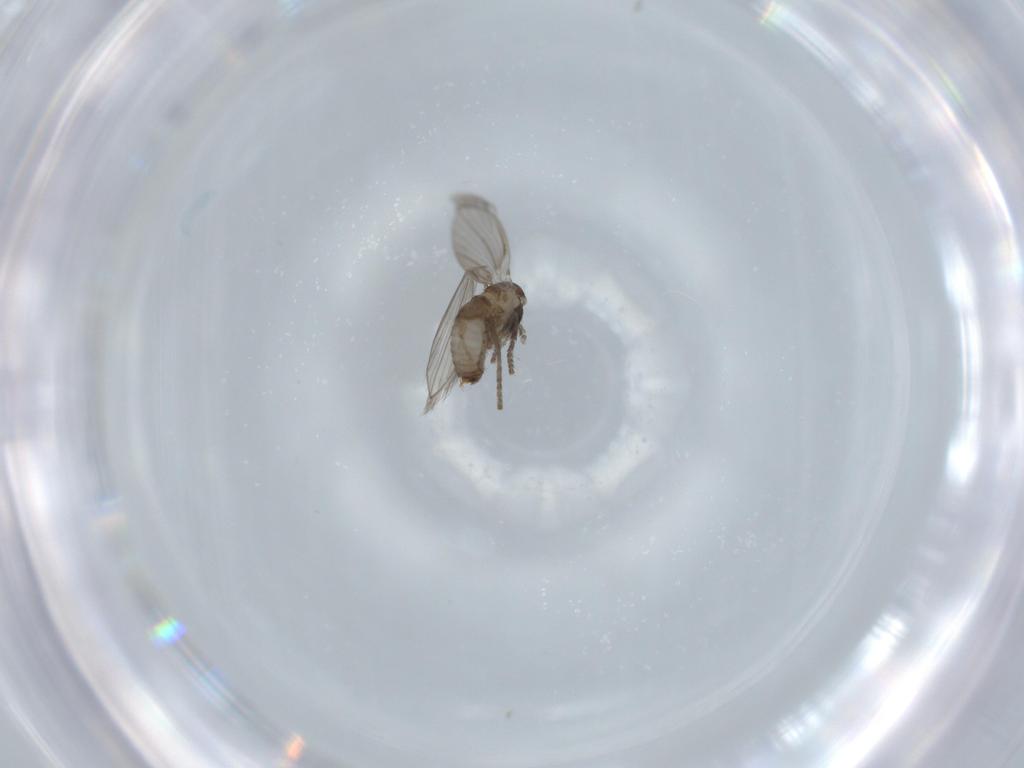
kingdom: Animalia
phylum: Arthropoda
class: Insecta
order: Diptera
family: Psychodidae
